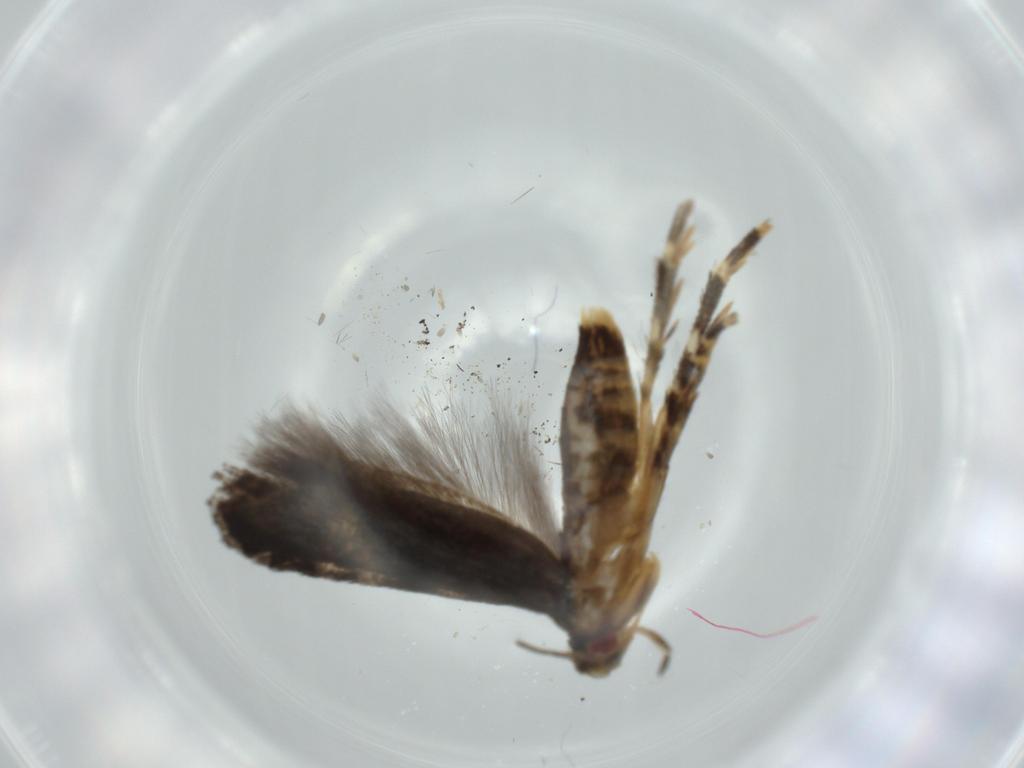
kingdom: Animalia
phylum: Arthropoda
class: Insecta
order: Lepidoptera
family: Momphidae
